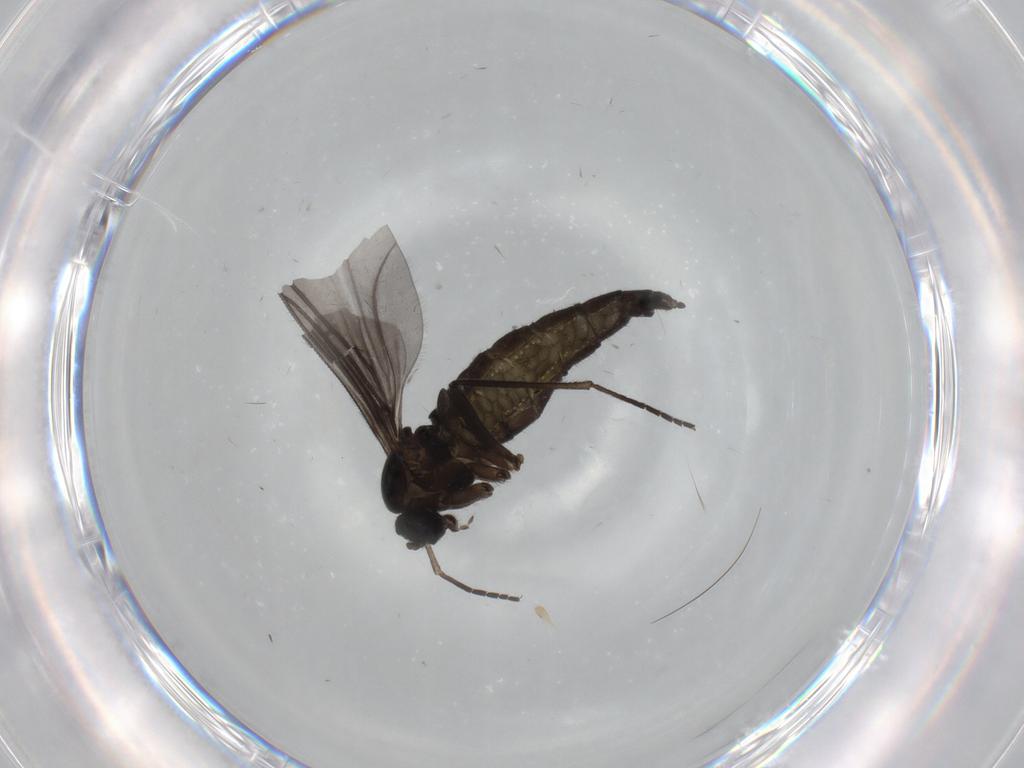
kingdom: Animalia
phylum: Arthropoda
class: Insecta
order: Diptera
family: Sciaridae
